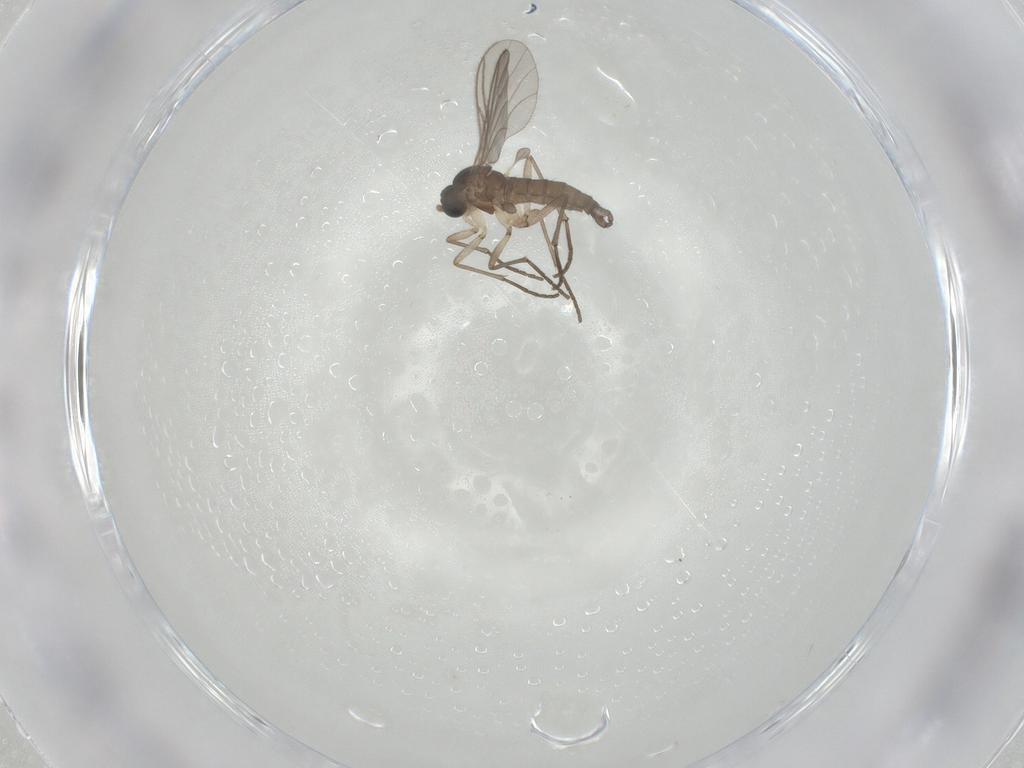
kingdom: Animalia
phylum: Arthropoda
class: Insecta
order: Diptera
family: Sciaridae
